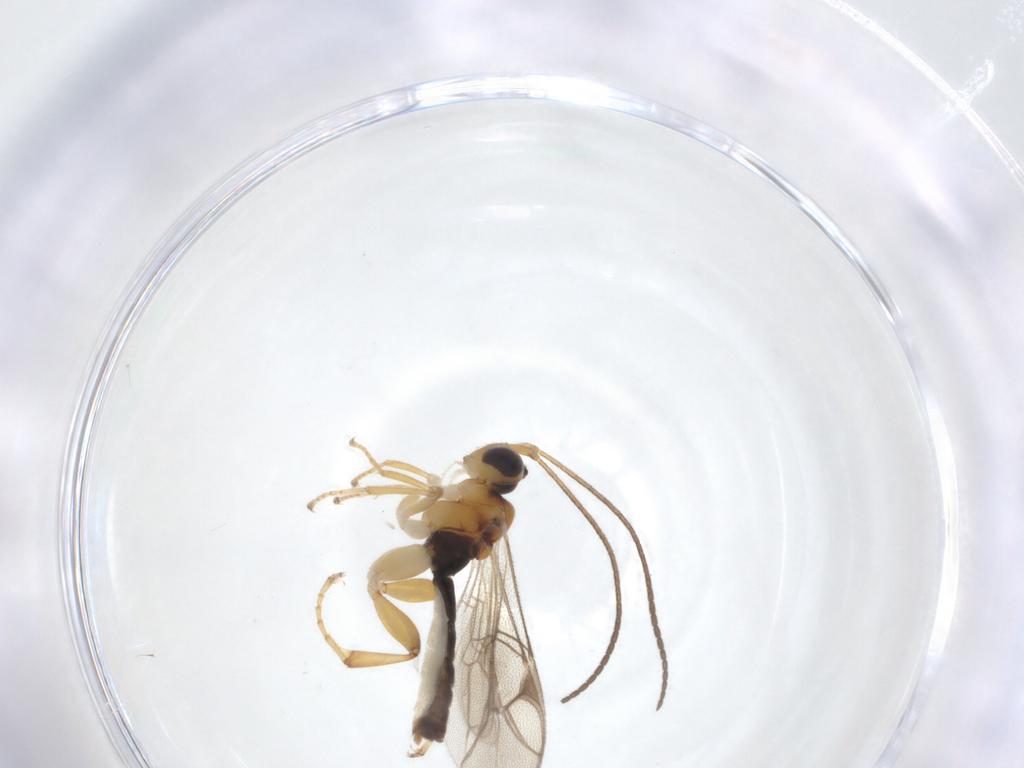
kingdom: Animalia
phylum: Arthropoda
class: Insecta
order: Hymenoptera
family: Ichneumonidae
